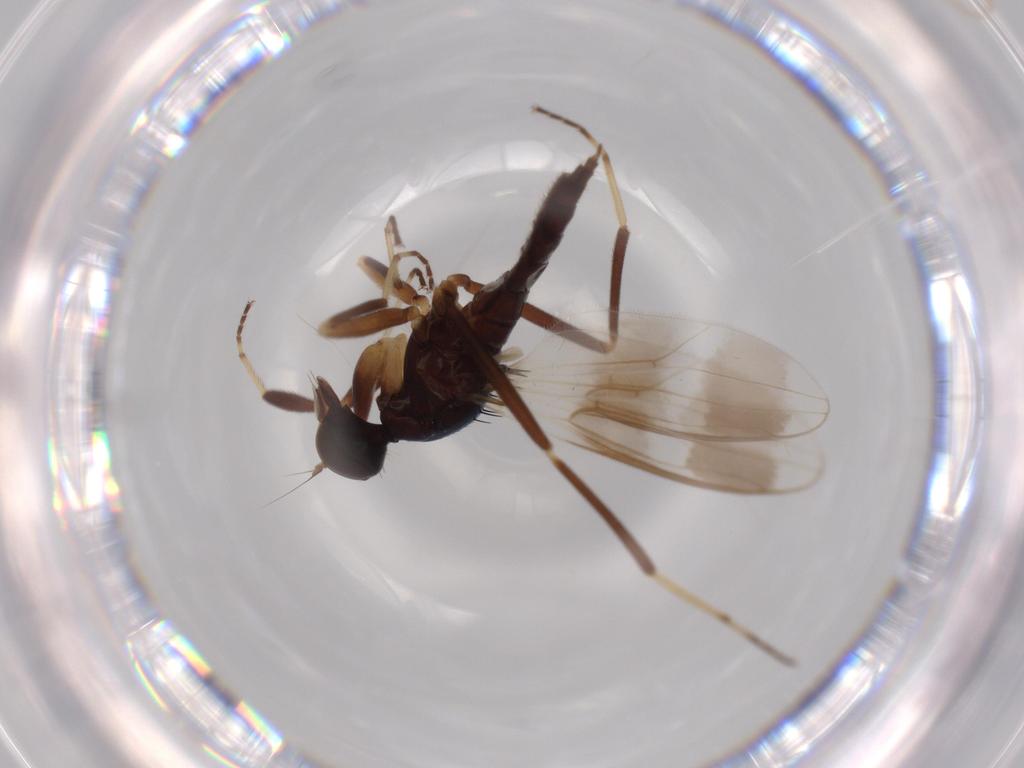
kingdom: Animalia
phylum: Arthropoda
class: Insecta
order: Diptera
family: Hybotidae
